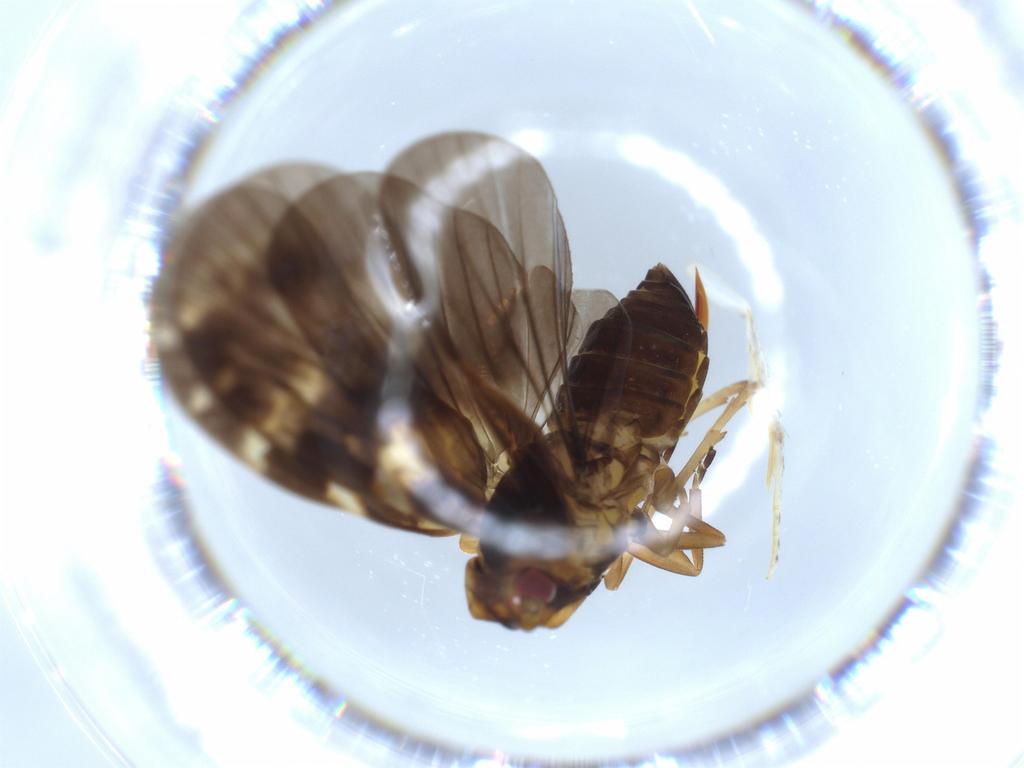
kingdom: Animalia
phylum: Arthropoda
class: Insecta
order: Hemiptera
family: Cixiidae
